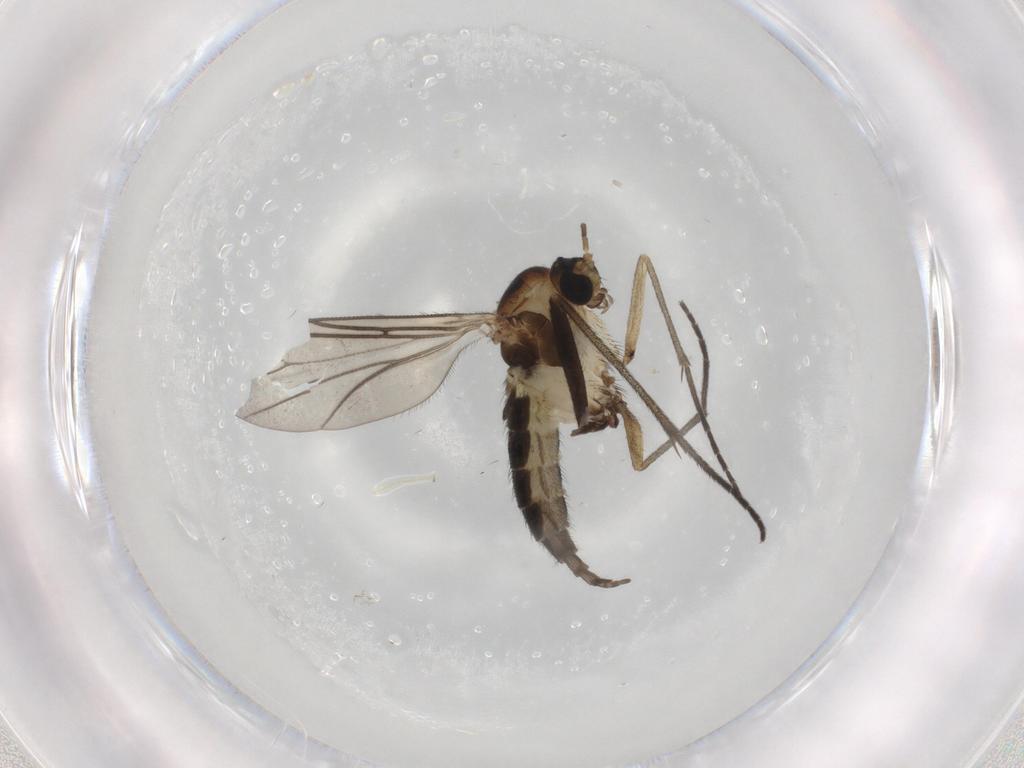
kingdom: Animalia
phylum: Arthropoda
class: Insecta
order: Diptera
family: Sciaridae
